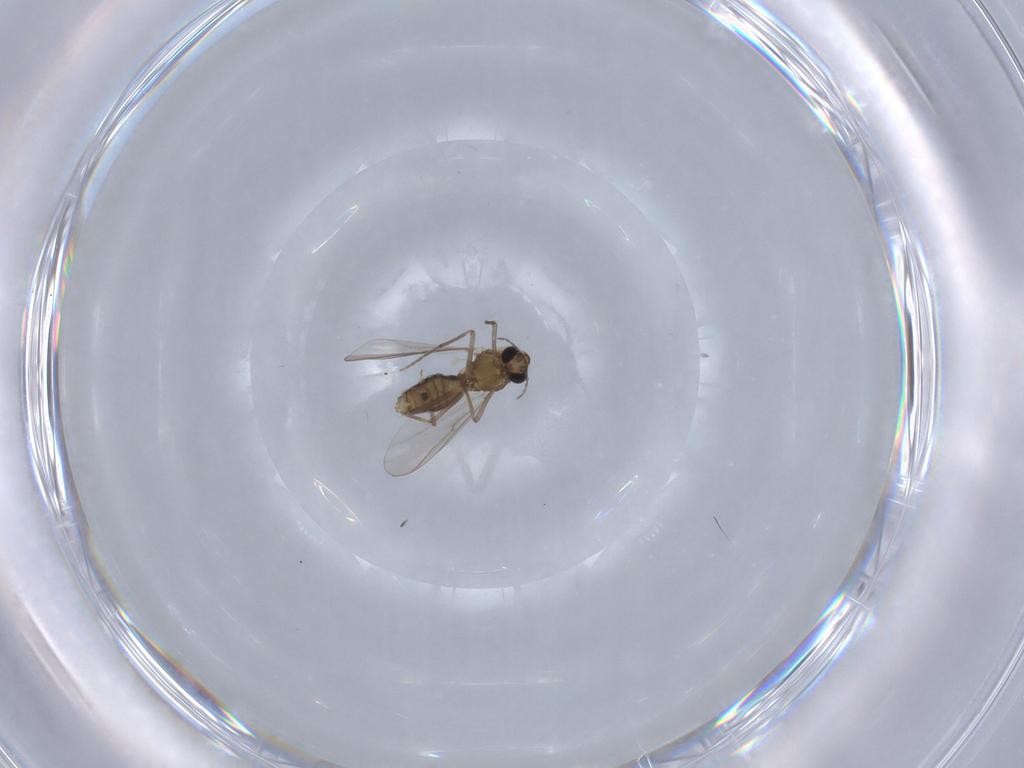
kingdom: Animalia
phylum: Arthropoda
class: Insecta
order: Diptera
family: Chironomidae
